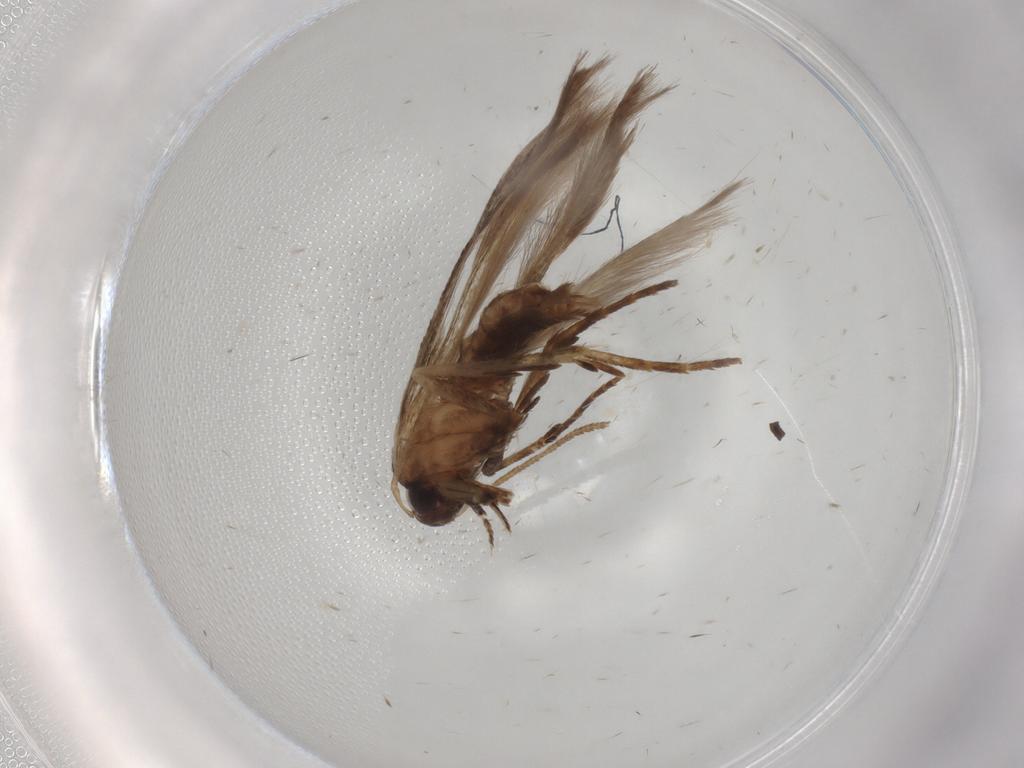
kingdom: Animalia
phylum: Arthropoda
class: Insecta
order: Lepidoptera
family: Cosmopterigidae
